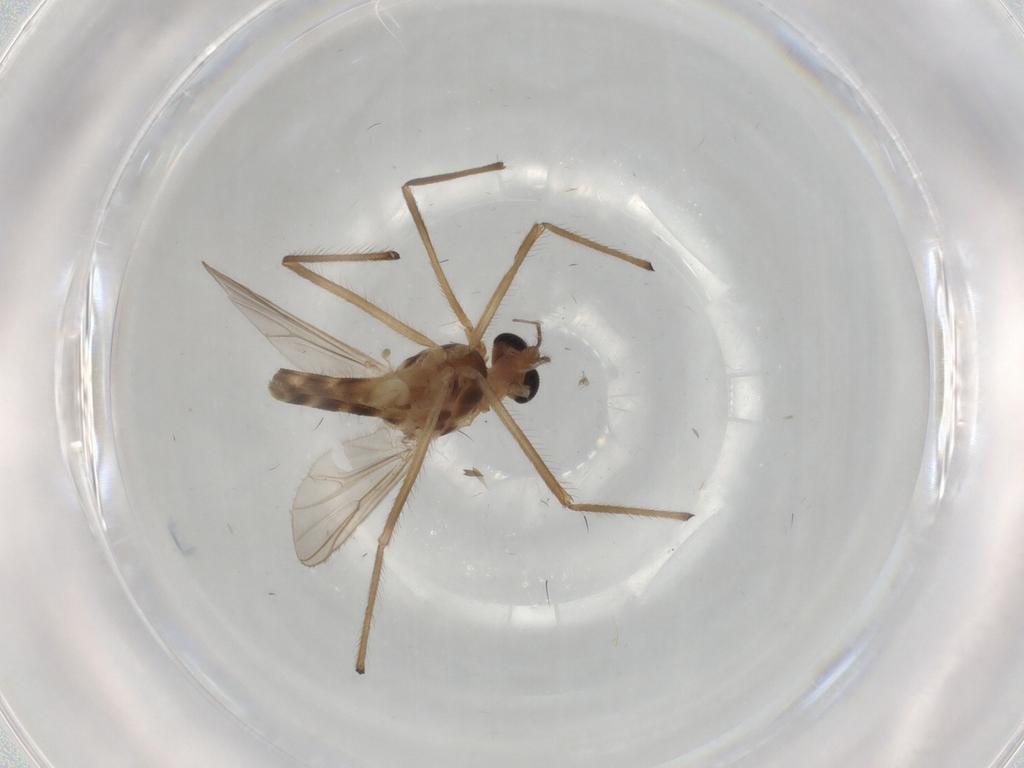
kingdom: Animalia
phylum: Arthropoda
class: Insecta
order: Diptera
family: Chironomidae
